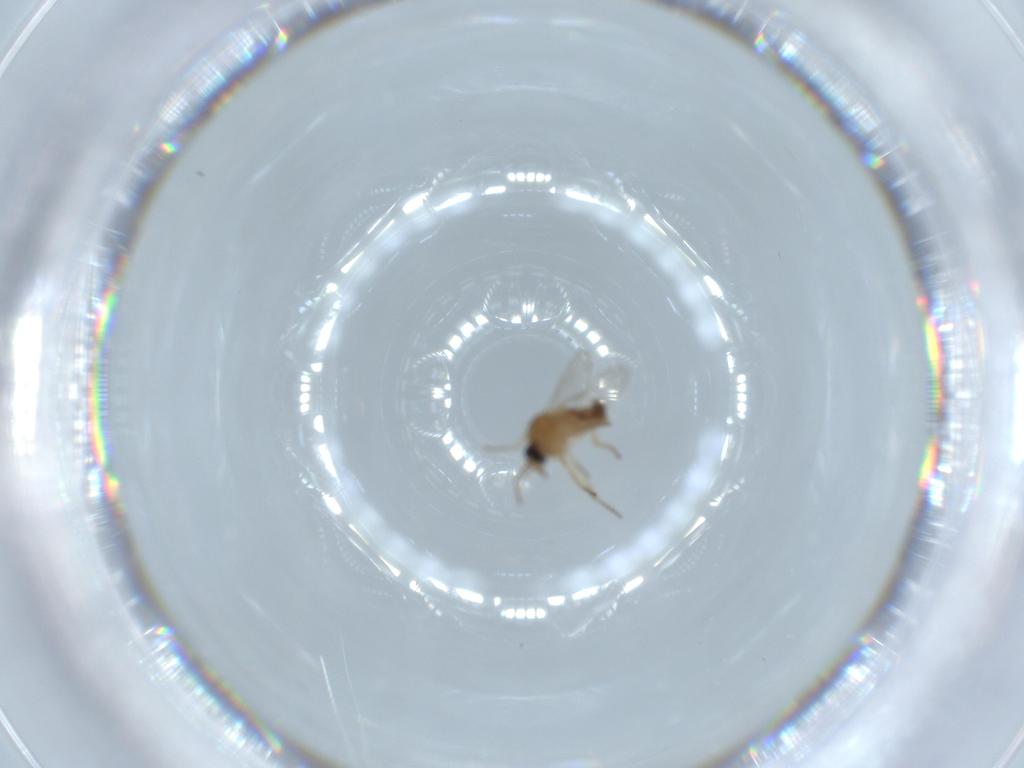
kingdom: Animalia
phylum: Arthropoda
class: Insecta
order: Diptera
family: Ceratopogonidae
